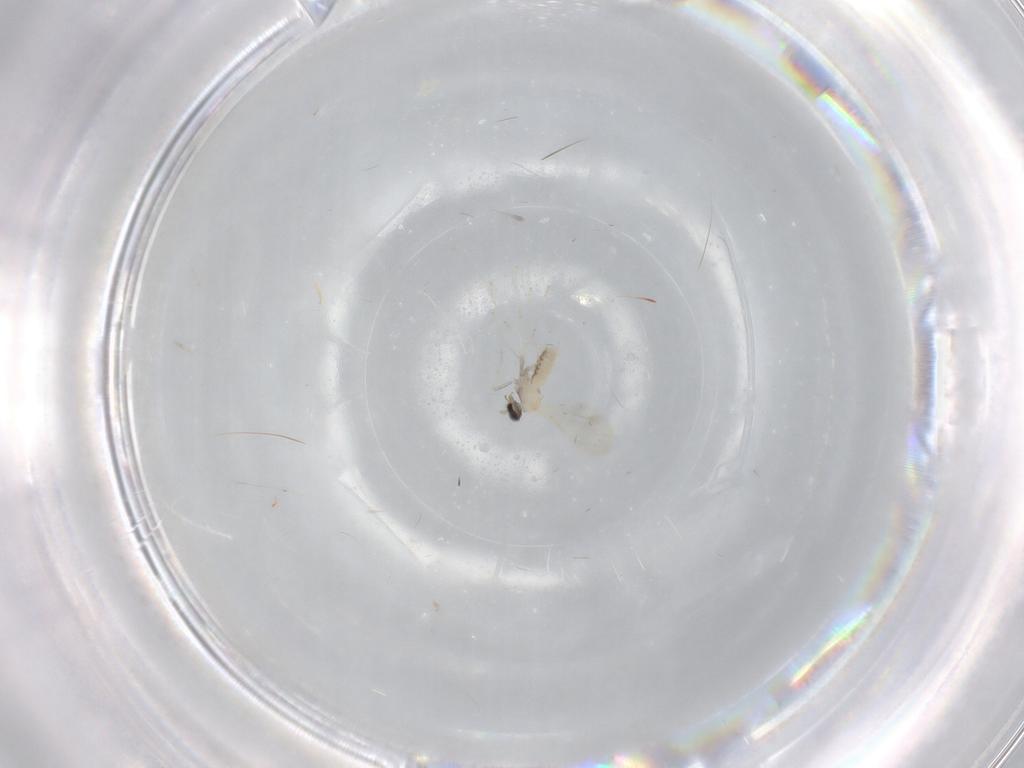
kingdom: Animalia
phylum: Arthropoda
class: Insecta
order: Diptera
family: Cecidomyiidae
